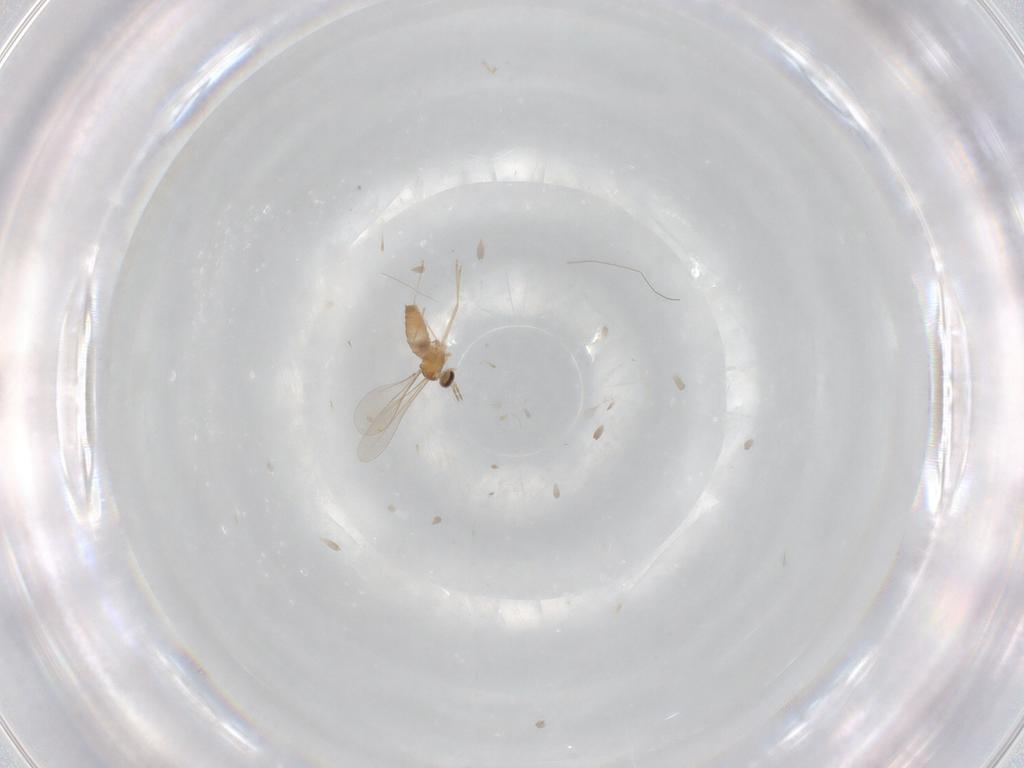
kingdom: Animalia
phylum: Arthropoda
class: Insecta
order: Diptera
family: Cecidomyiidae
